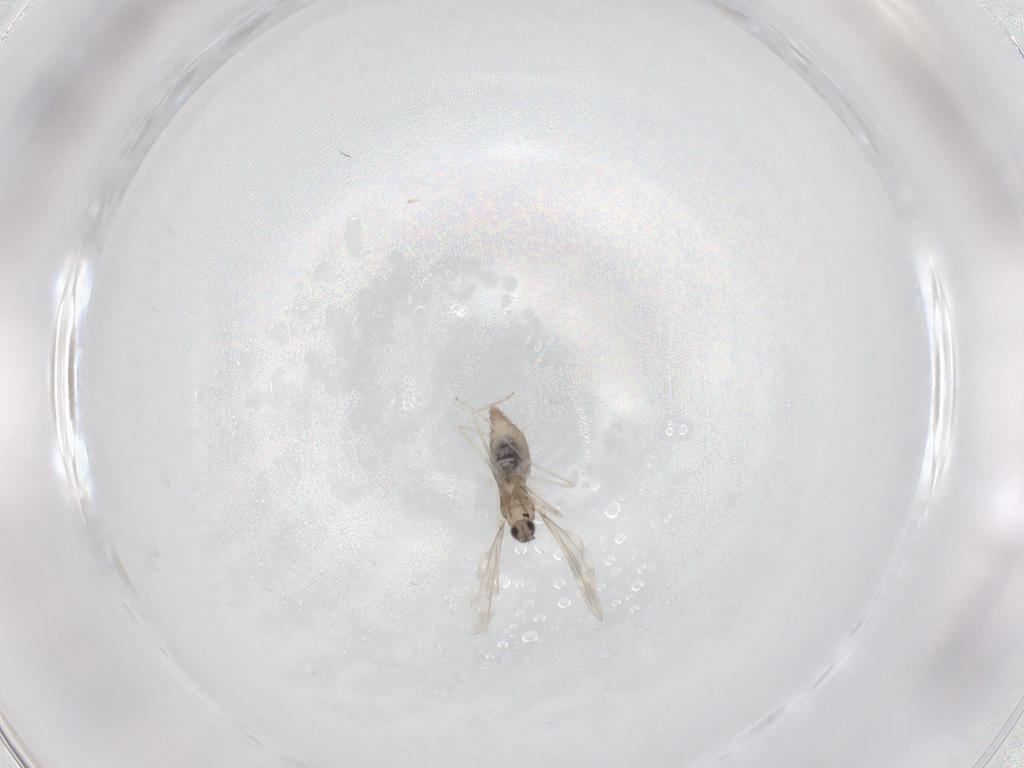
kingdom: Animalia
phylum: Arthropoda
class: Insecta
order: Diptera
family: Cecidomyiidae
